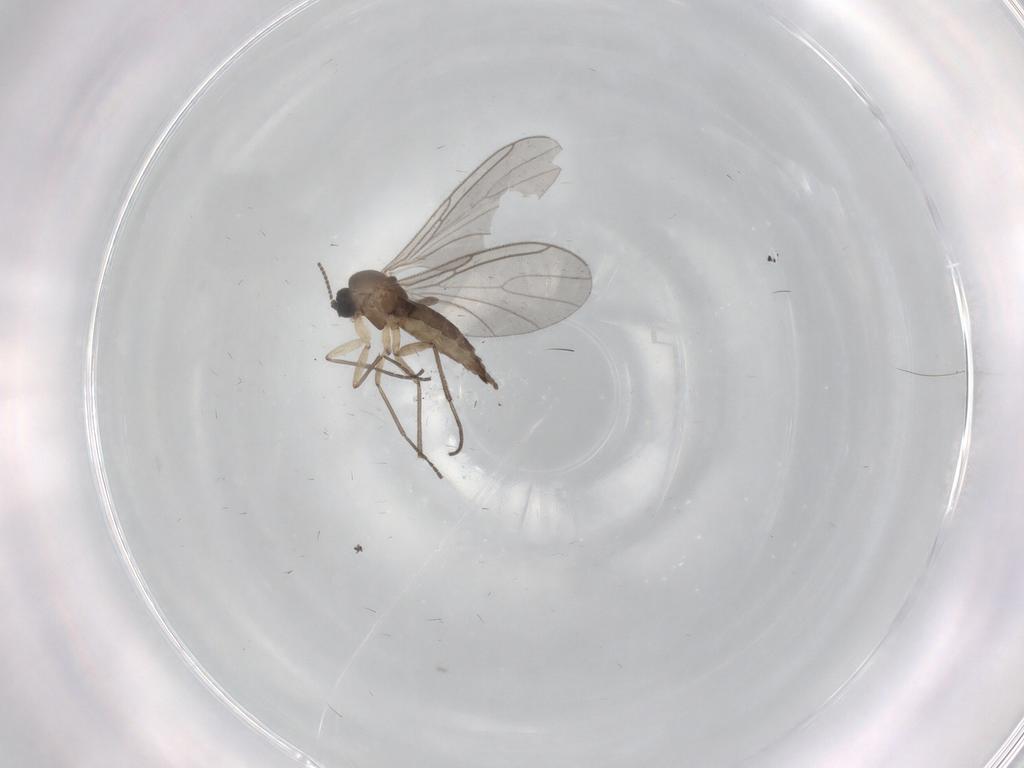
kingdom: Animalia
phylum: Arthropoda
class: Insecta
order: Diptera
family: Sciaridae
